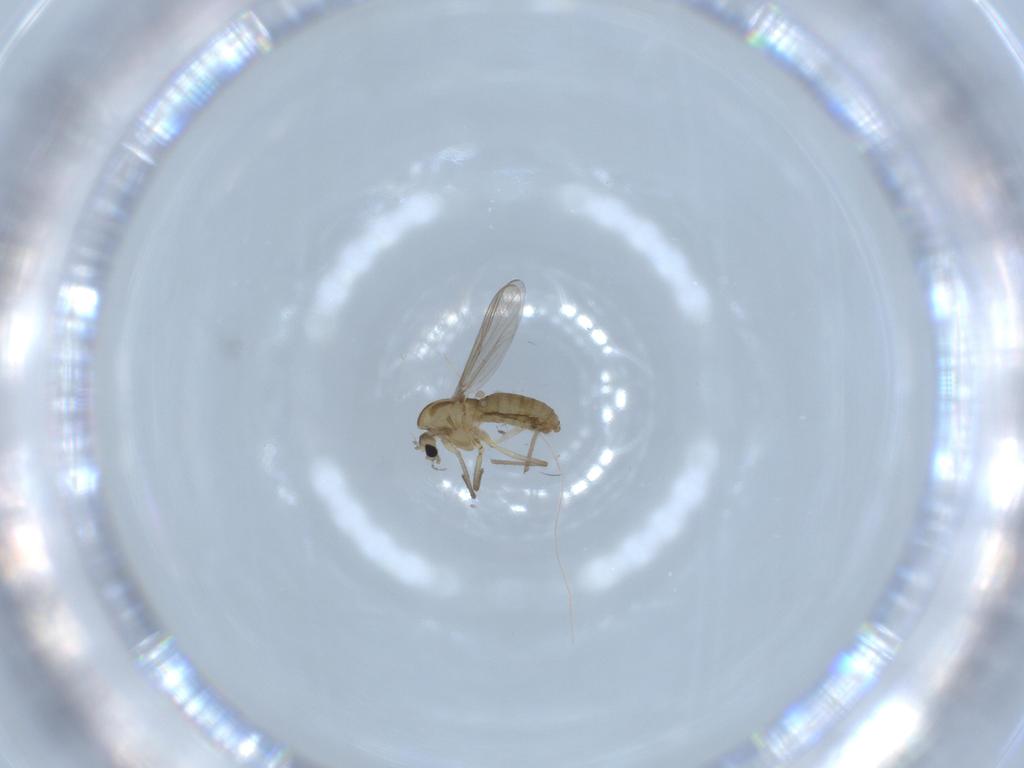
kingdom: Animalia
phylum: Arthropoda
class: Insecta
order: Diptera
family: Chironomidae
